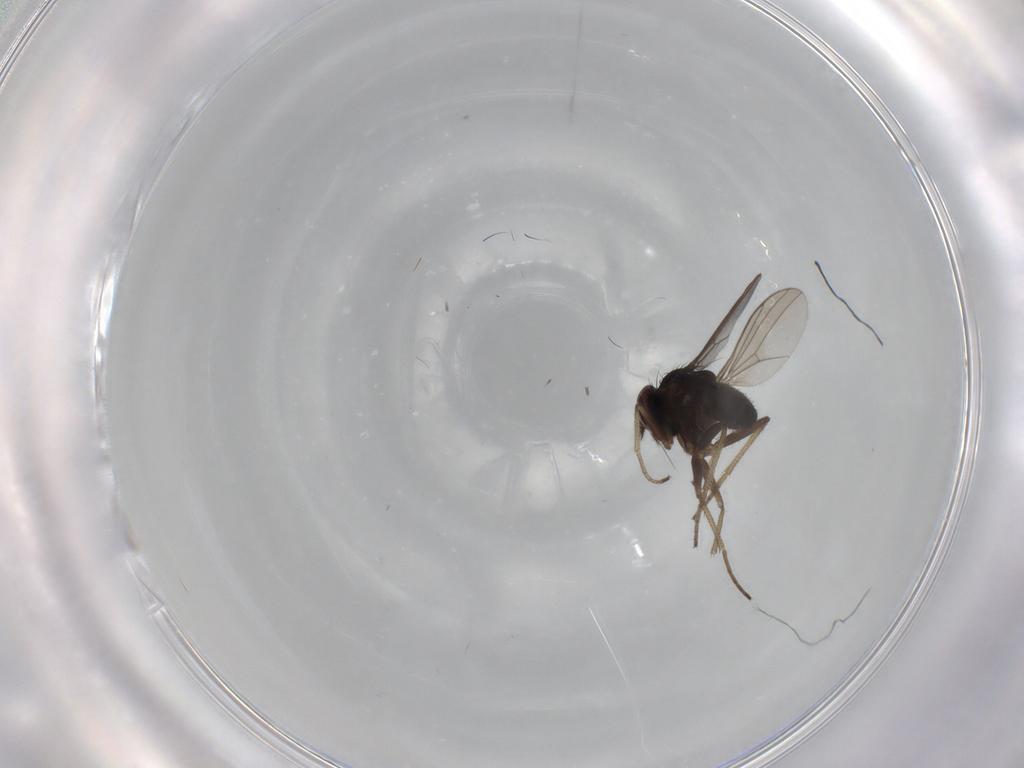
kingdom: Animalia
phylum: Arthropoda
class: Insecta
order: Diptera
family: Dolichopodidae
